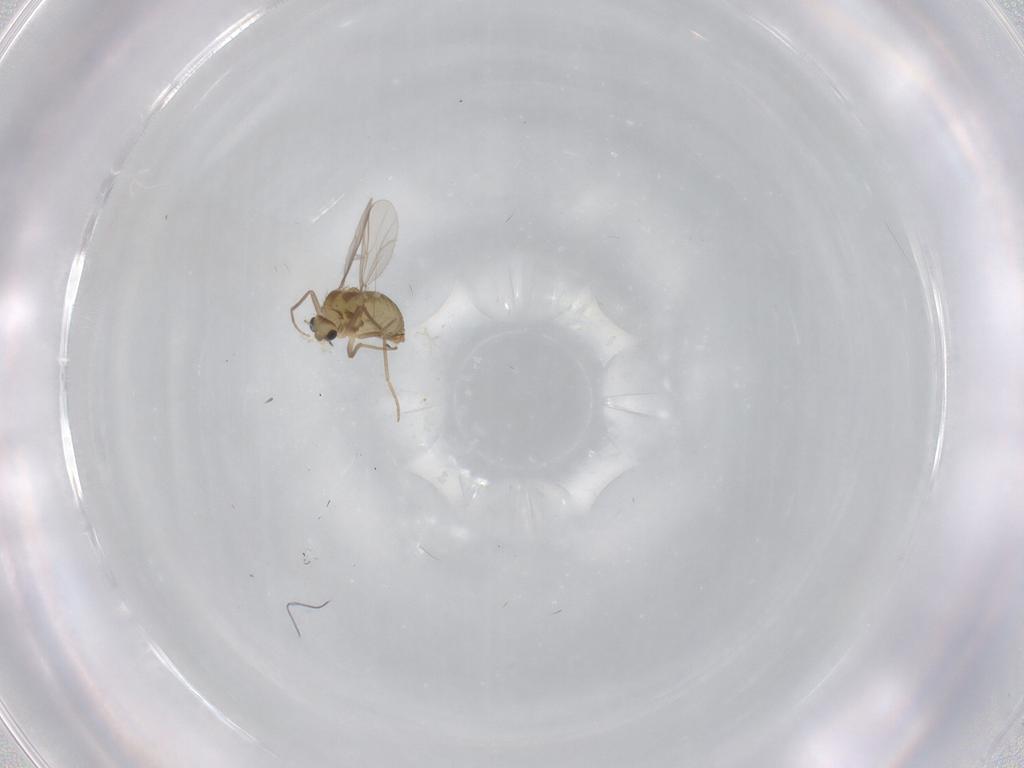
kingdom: Animalia
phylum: Arthropoda
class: Insecta
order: Diptera
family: Chironomidae
